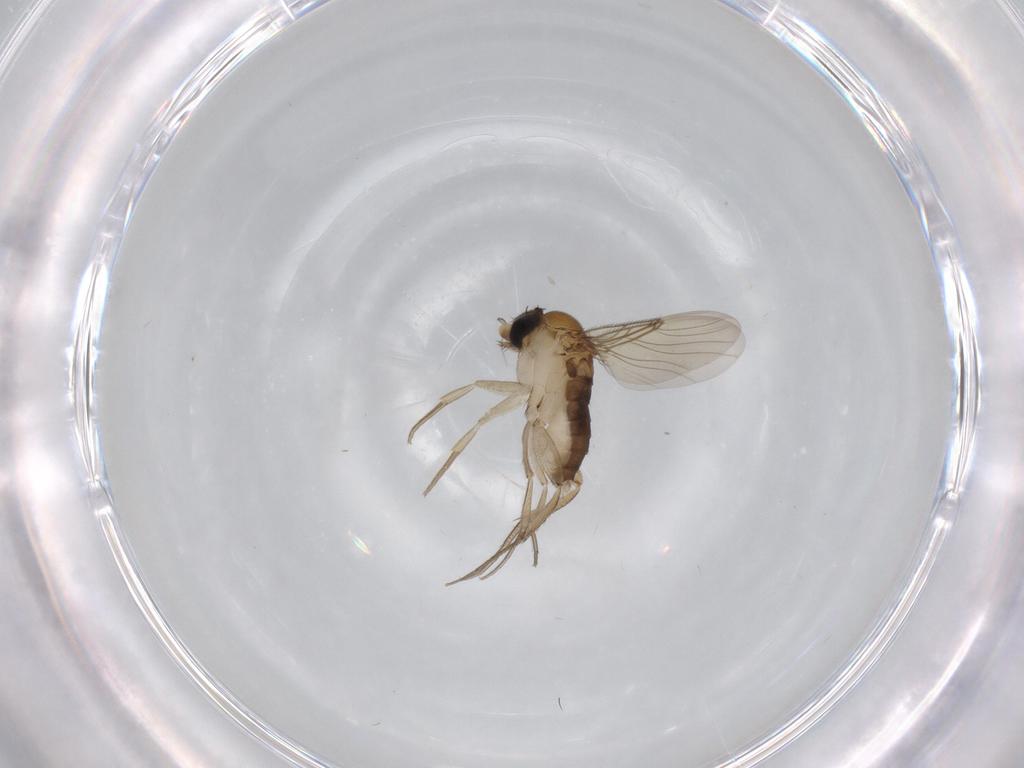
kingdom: Animalia
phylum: Arthropoda
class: Insecta
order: Diptera
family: Phoridae
